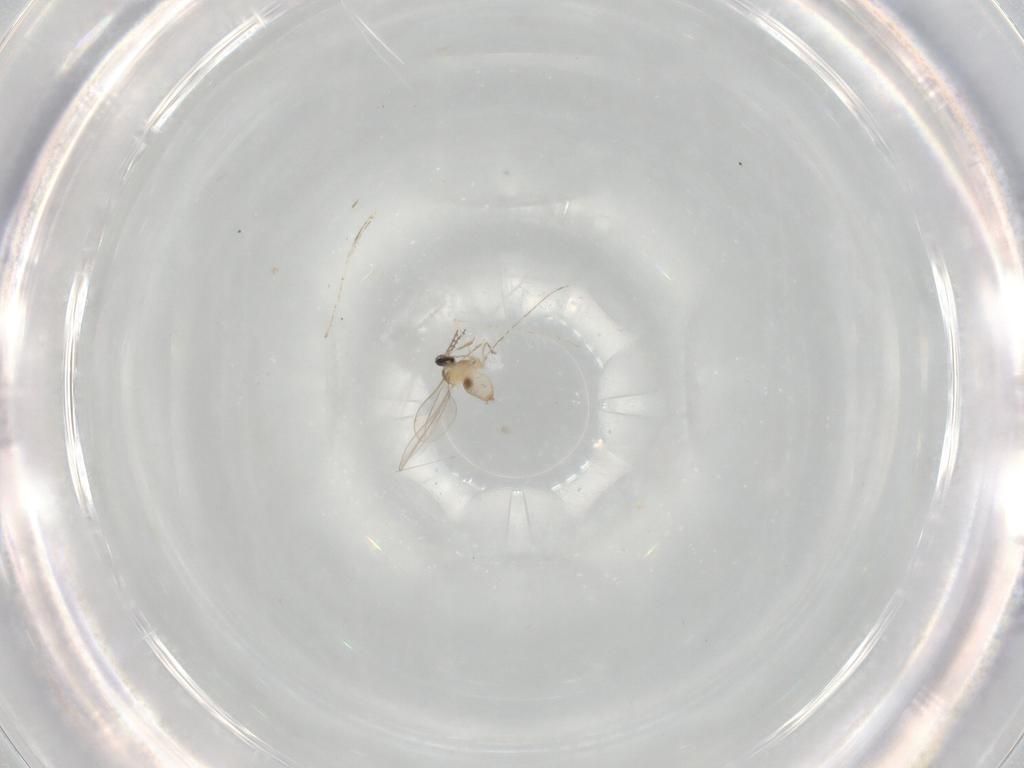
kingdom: Animalia
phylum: Arthropoda
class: Insecta
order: Diptera
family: Cecidomyiidae
